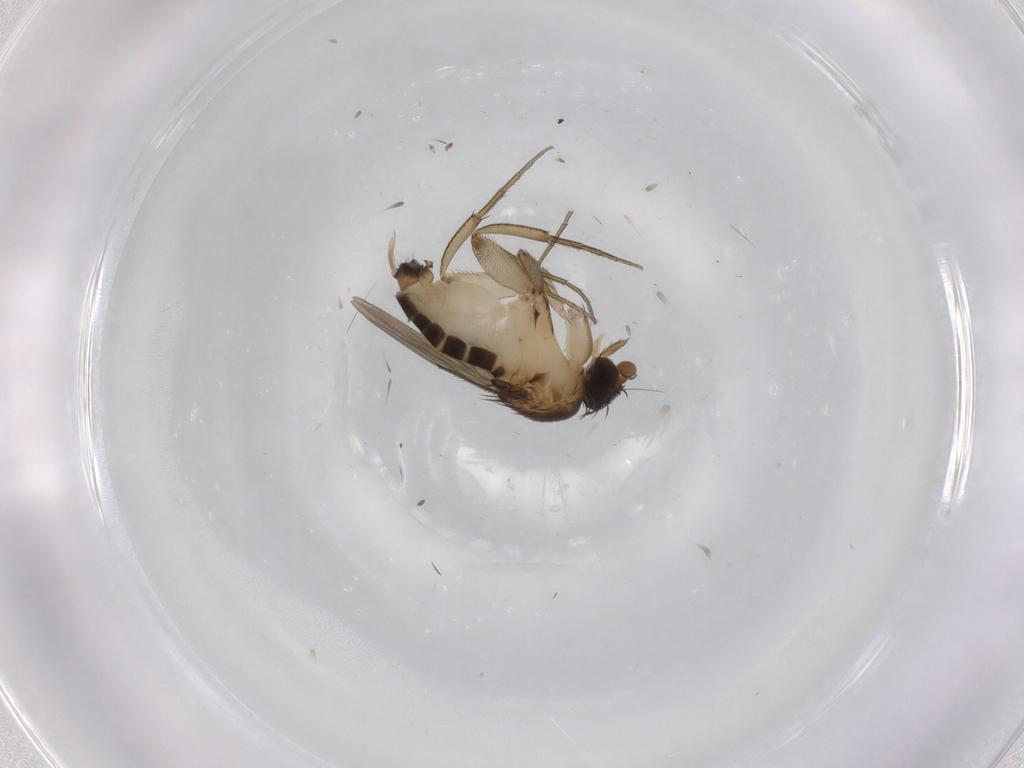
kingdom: Animalia
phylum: Arthropoda
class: Insecta
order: Diptera
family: Cecidomyiidae
